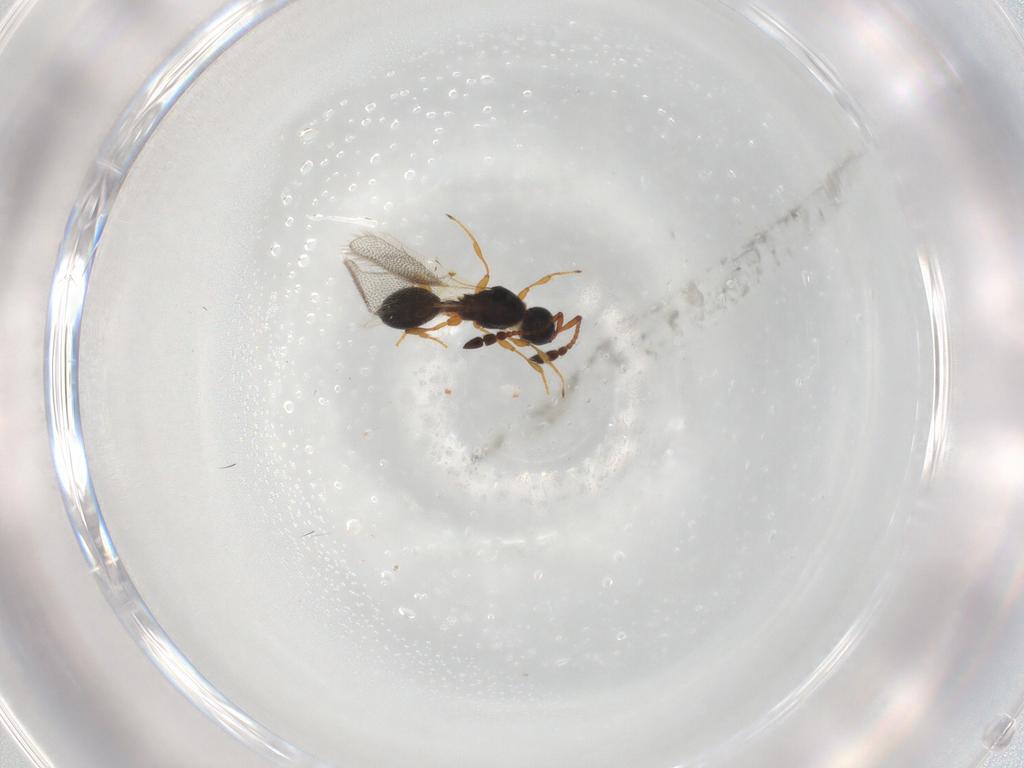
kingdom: Animalia
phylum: Arthropoda
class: Insecta
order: Hymenoptera
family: Diapriidae
